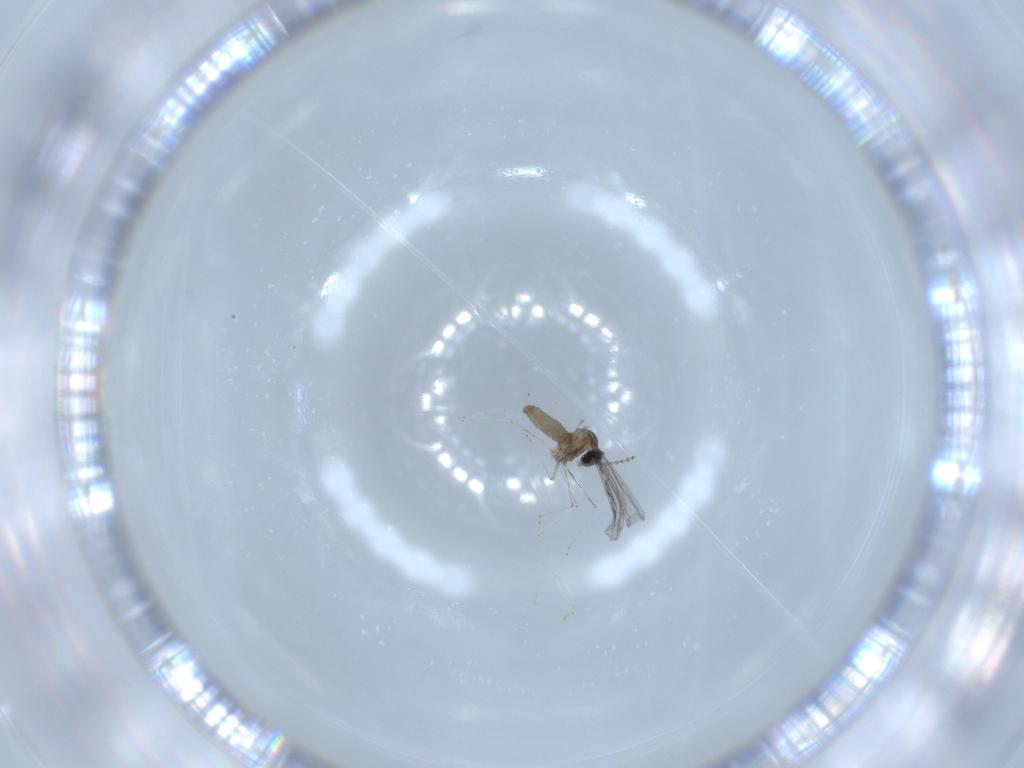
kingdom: Animalia
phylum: Arthropoda
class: Insecta
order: Diptera
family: Cecidomyiidae
